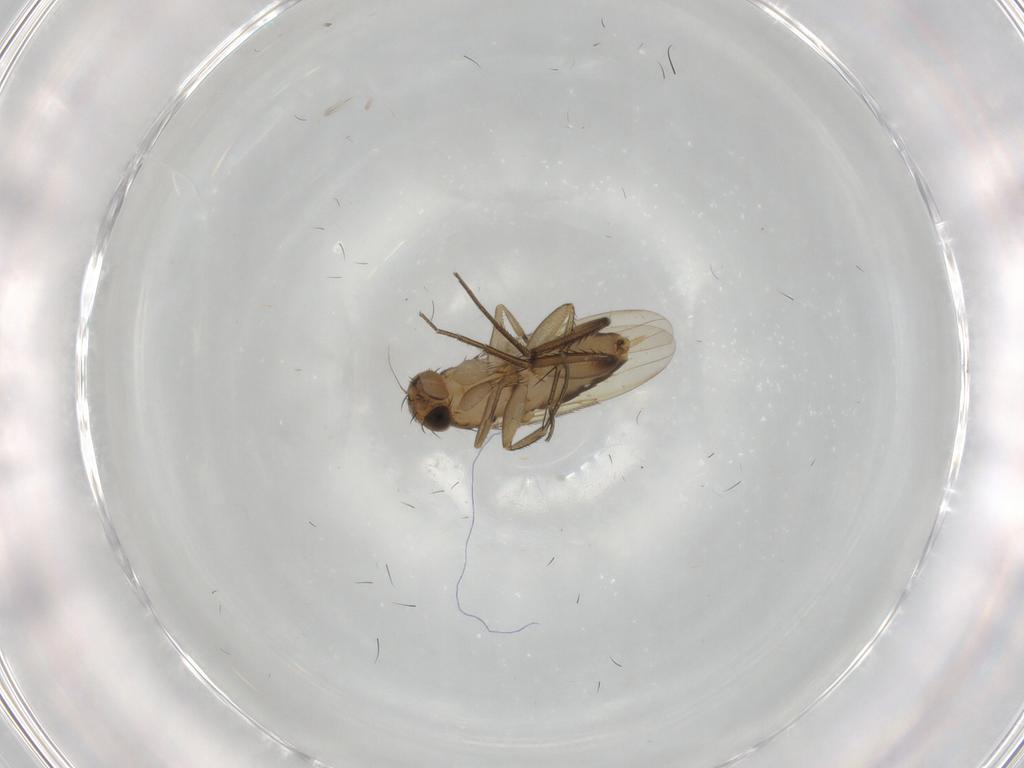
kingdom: Animalia
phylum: Arthropoda
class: Insecta
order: Diptera
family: Phoridae
